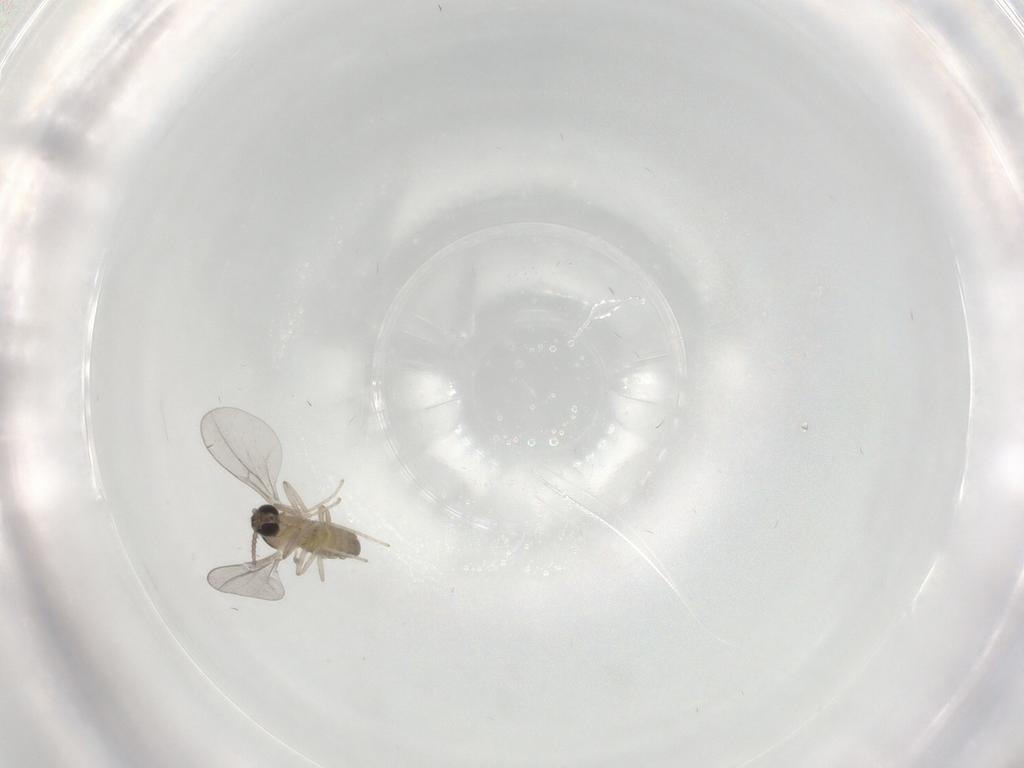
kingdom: Animalia
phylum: Arthropoda
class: Insecta
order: Diptera
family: Cecidomyiidae
